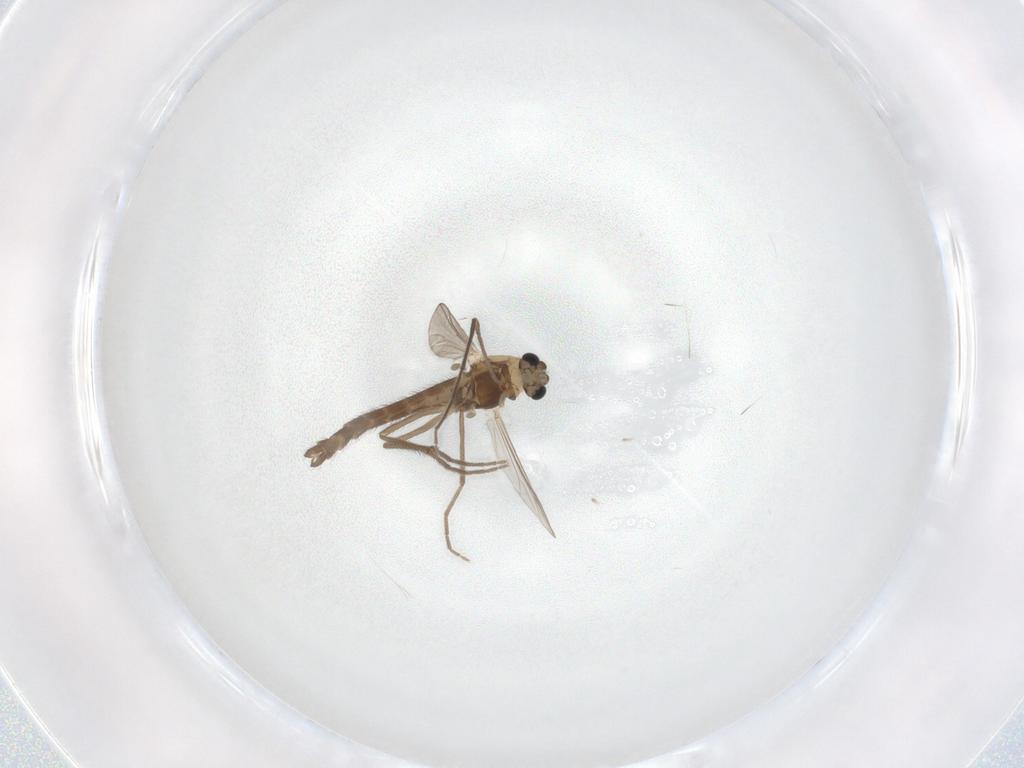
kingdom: Animalia
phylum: Arthropoda
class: Insecta
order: Diptera
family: Chironomidae
